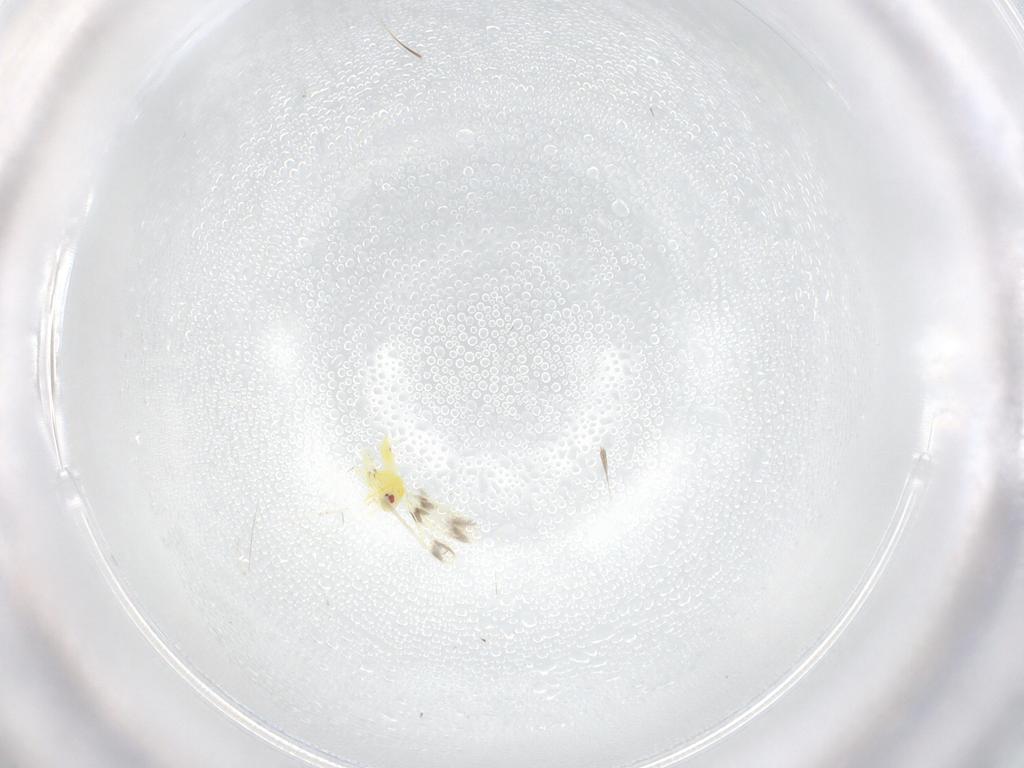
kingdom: Animalia
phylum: Arthropoda
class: Insecta
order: Hemiptera
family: Aleyrodidae
